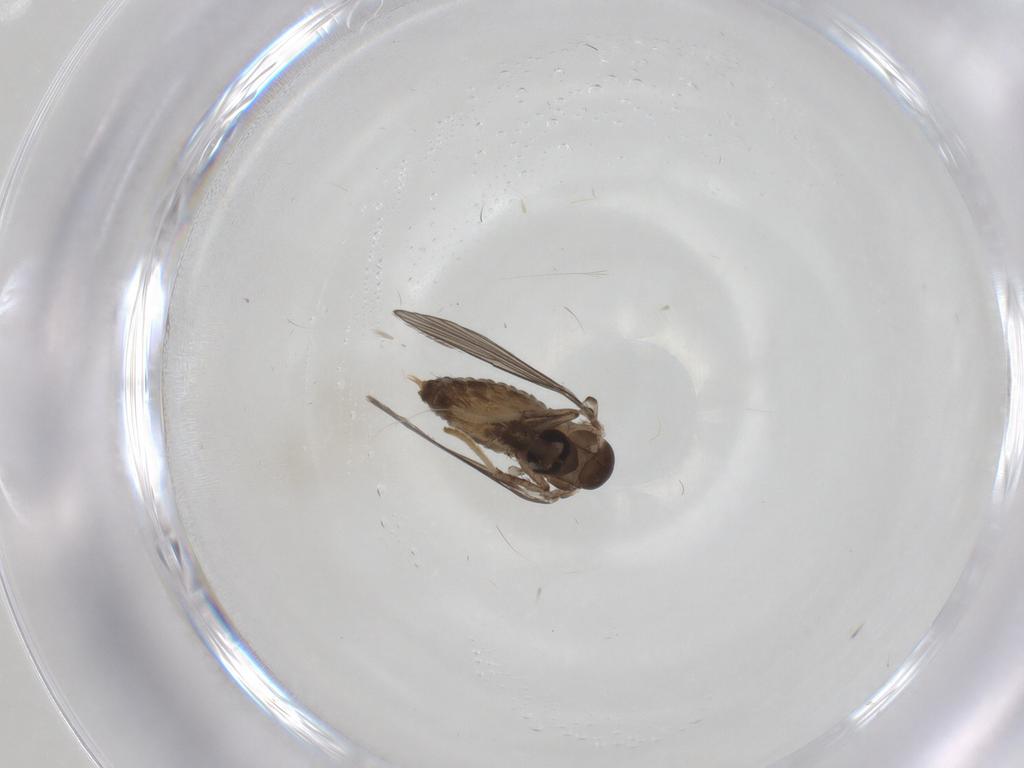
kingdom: Animalia
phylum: Arthropoda
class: Insecta
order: Diptera
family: Psychodidae
